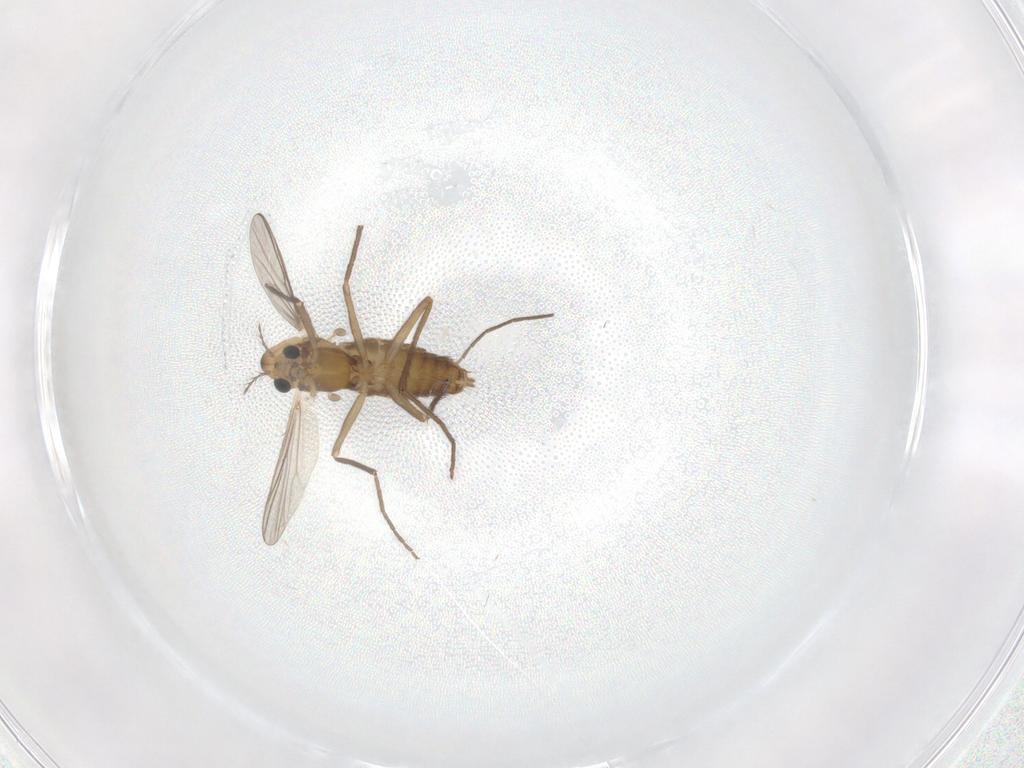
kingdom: Animalia
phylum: Arthropoda
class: Insecta
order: Diptera
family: Chironomidae
